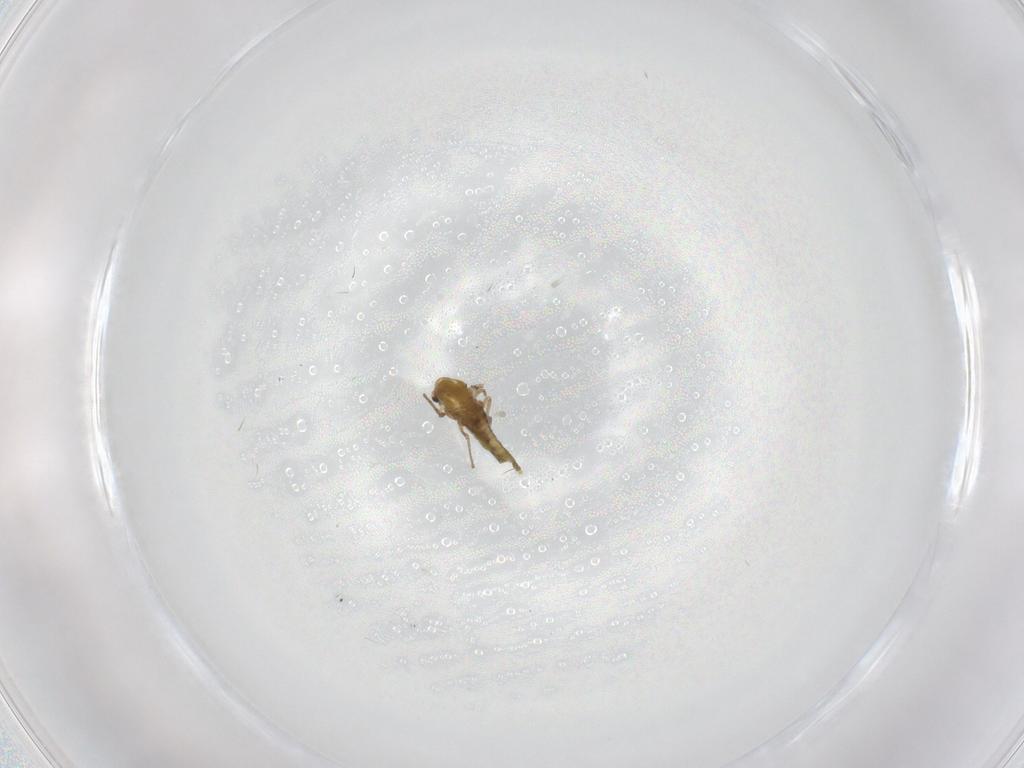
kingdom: Animalia
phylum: Arthropoda
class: Insecta
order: Diptera
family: Chironomidae
